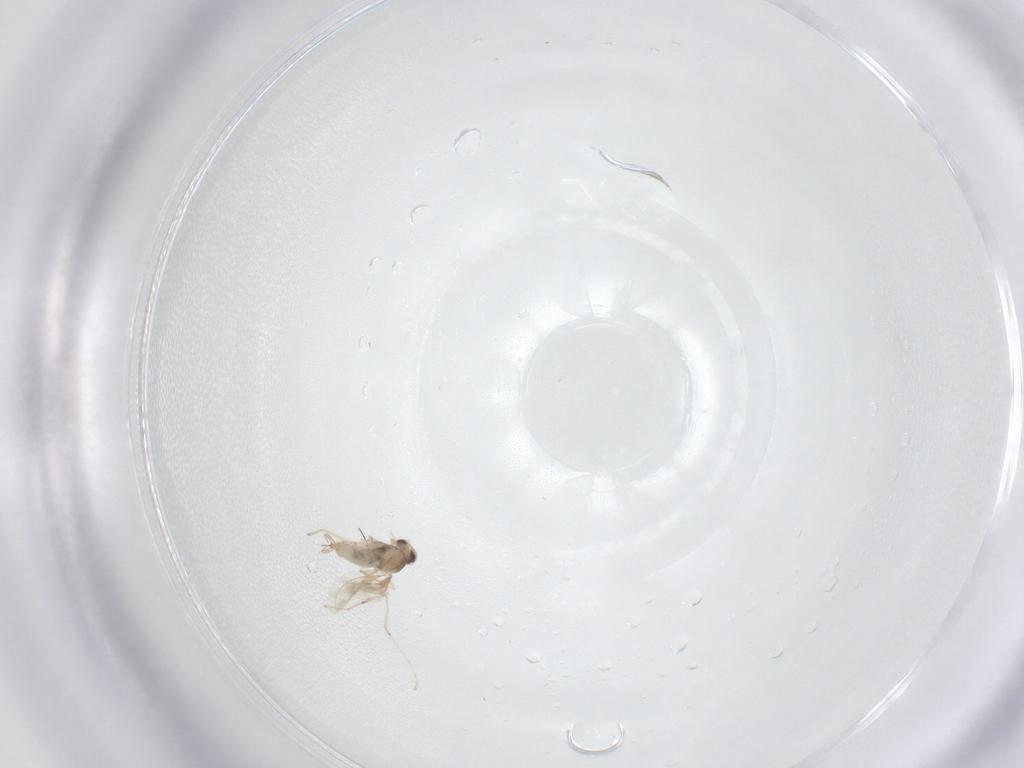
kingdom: Animalia
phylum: Arthropoda
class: Insecta
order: Diptera
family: Cecidomyiidae
